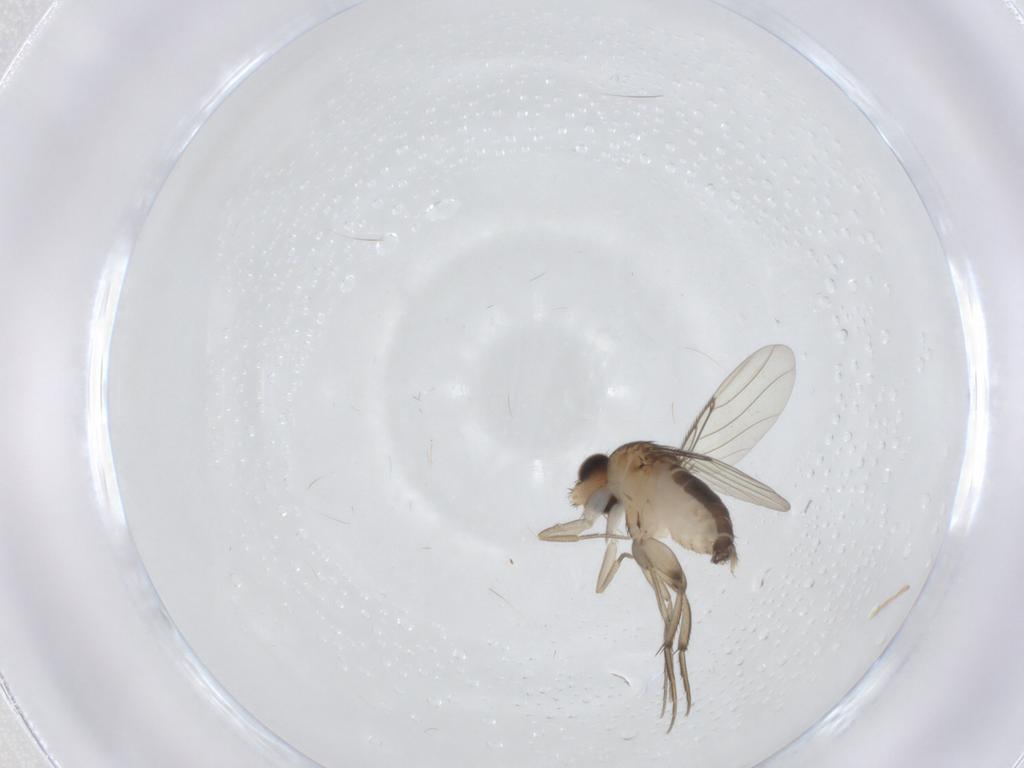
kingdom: Animalia
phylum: Arthropoda
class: Insecta
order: Diptera
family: Phoridae
